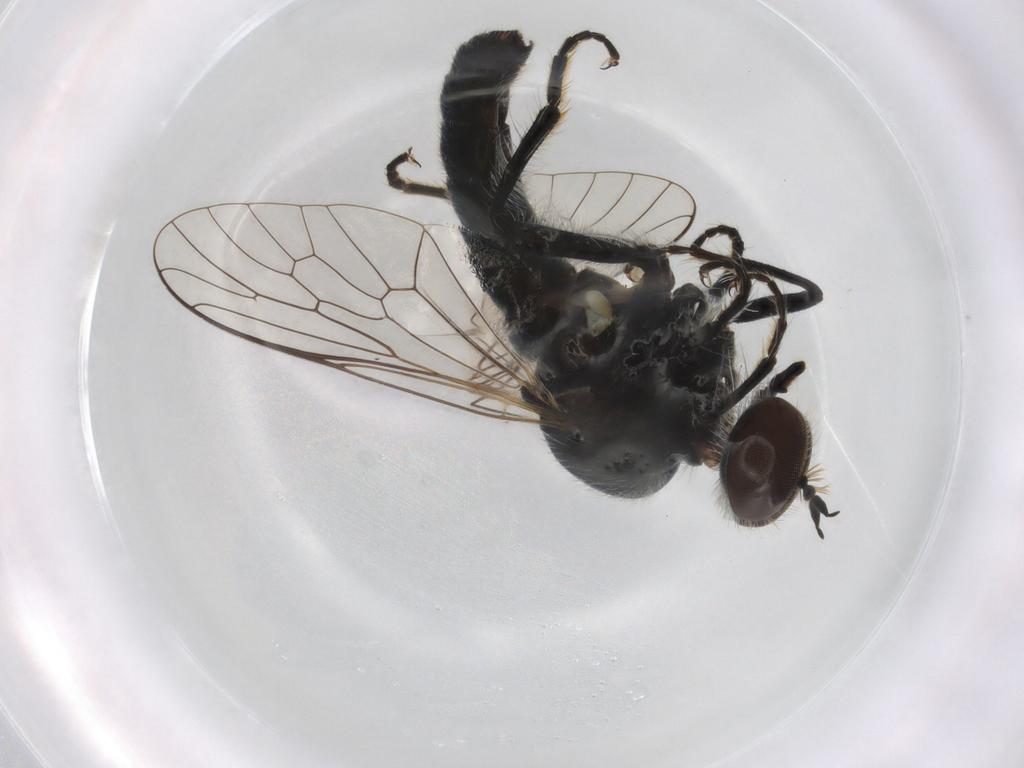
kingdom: Animalia
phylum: Arthropoda
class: Insecta
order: Diptera
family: Asilidae
